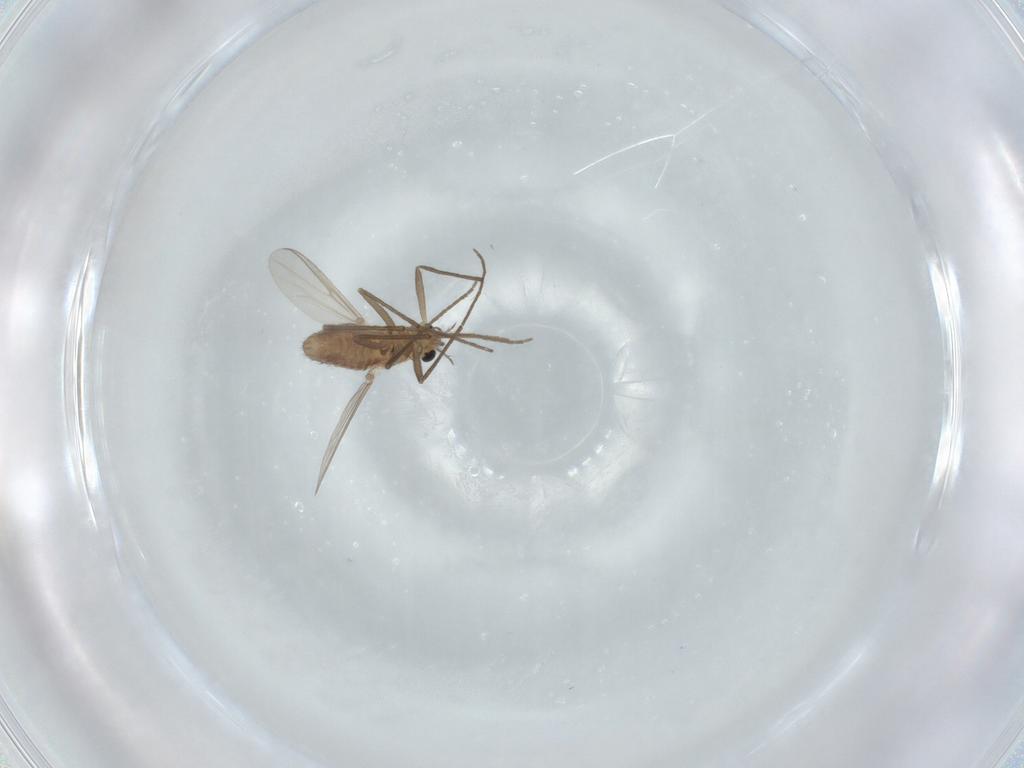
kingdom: Animalia
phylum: Arthropoda
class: Insecta
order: Diptera
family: Chironomidae
